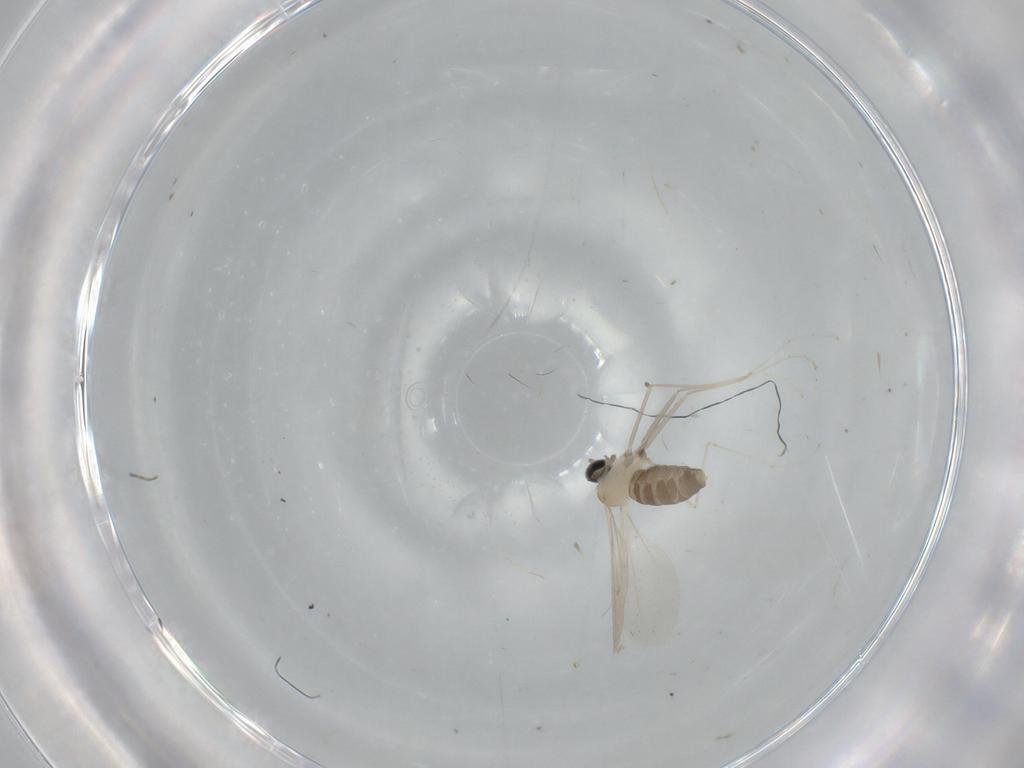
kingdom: Animalia
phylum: Arthropoda
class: Insecta
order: Diptera
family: Cecidomyiidae
